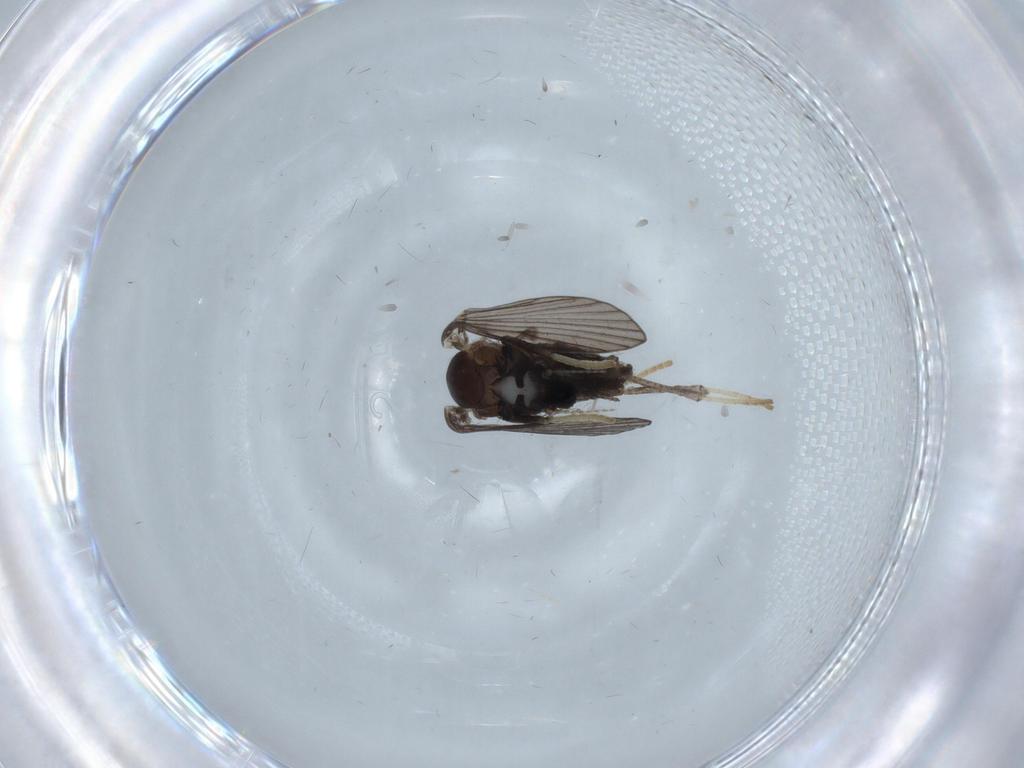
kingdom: Animalia
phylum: Arthropoda
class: Insecta
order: Diptera
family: Psychodidae
